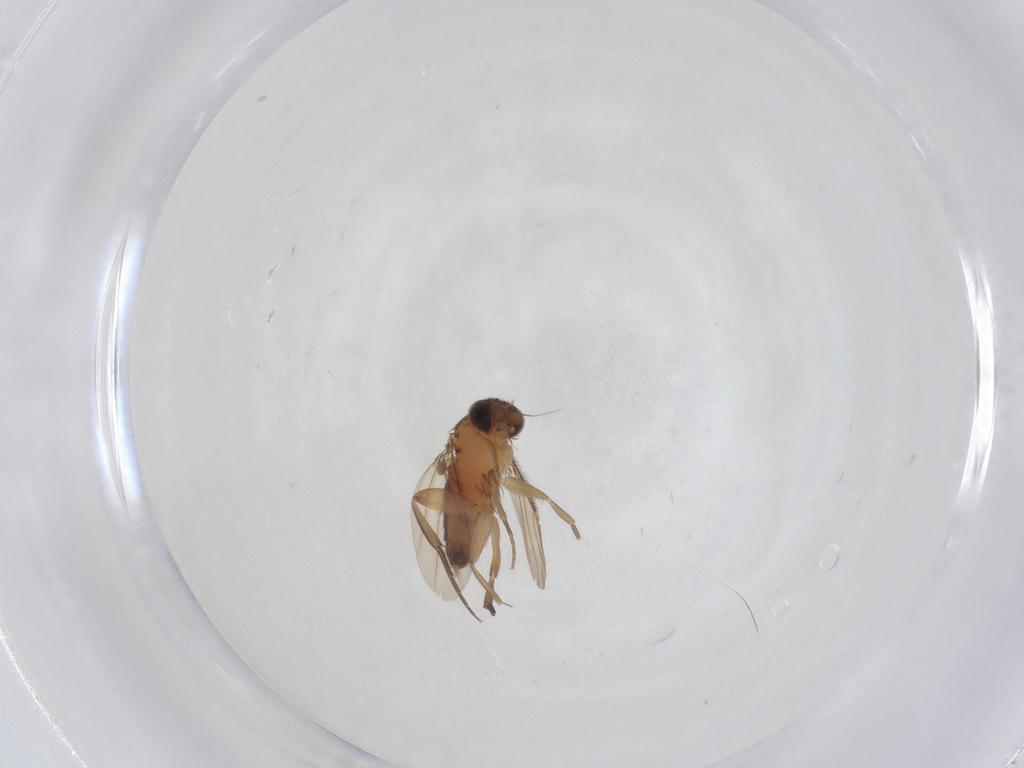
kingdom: Animalia
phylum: Arthropoda
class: Insecta
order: Diptera
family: Phoridae
